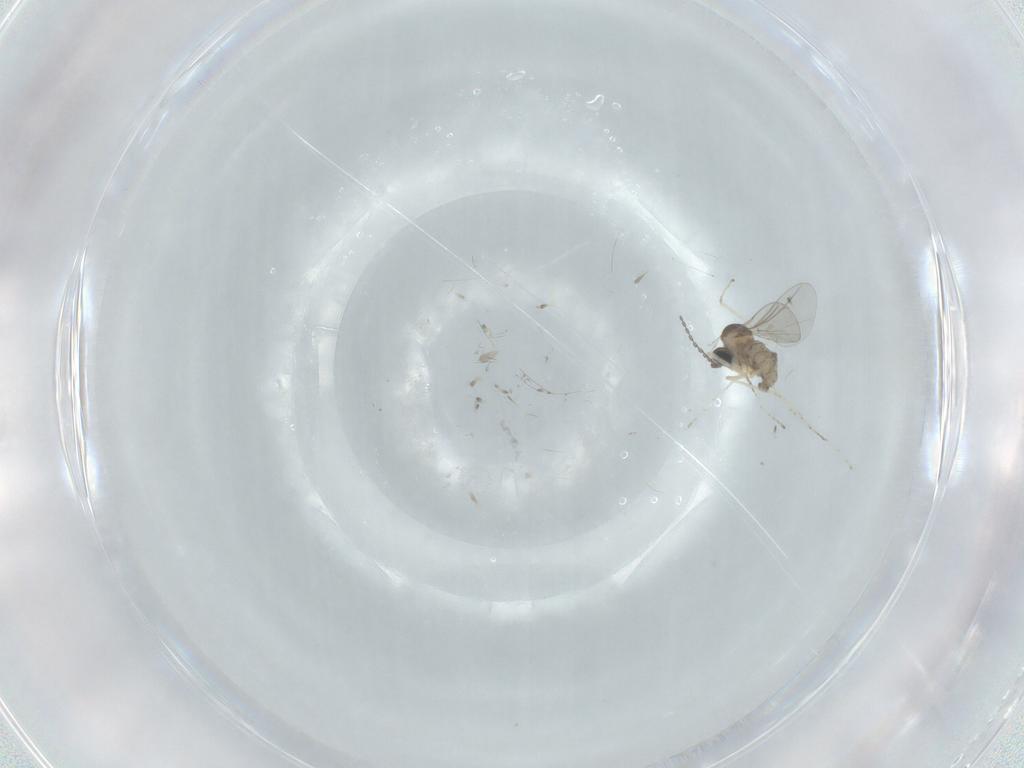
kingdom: Animalia
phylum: Arthropoda
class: Insecta
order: Diptera
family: Cecidomyiidae
